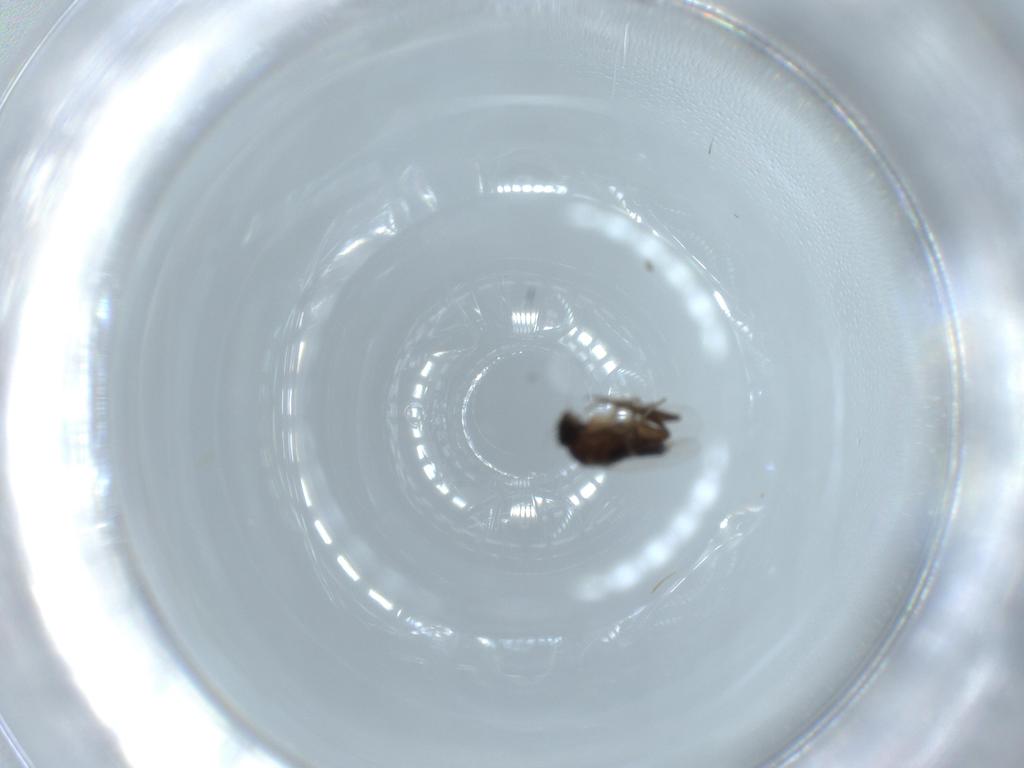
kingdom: Animalia
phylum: Arthropoda
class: Insecta
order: Diptera
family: Phoridae
